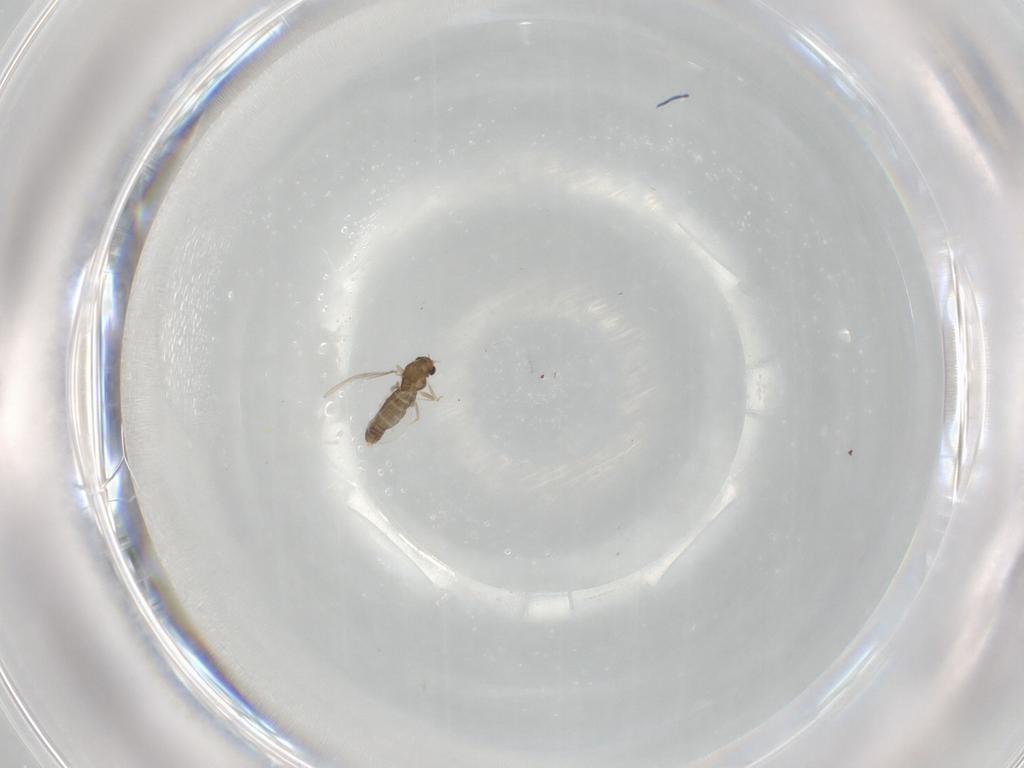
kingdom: Animalia
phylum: Arthropoda
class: Insecta
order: Diptera
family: Chironomidae
